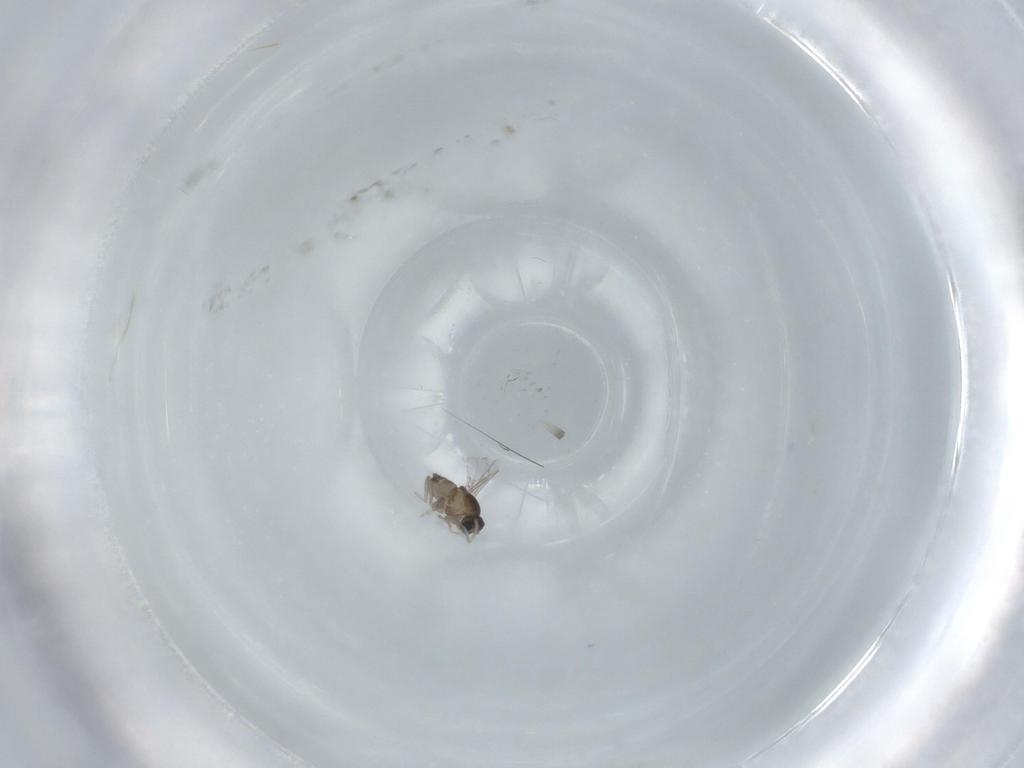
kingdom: Animalia
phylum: Arthropoda
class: Insecta
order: Diptera
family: Cecidomyiidae
